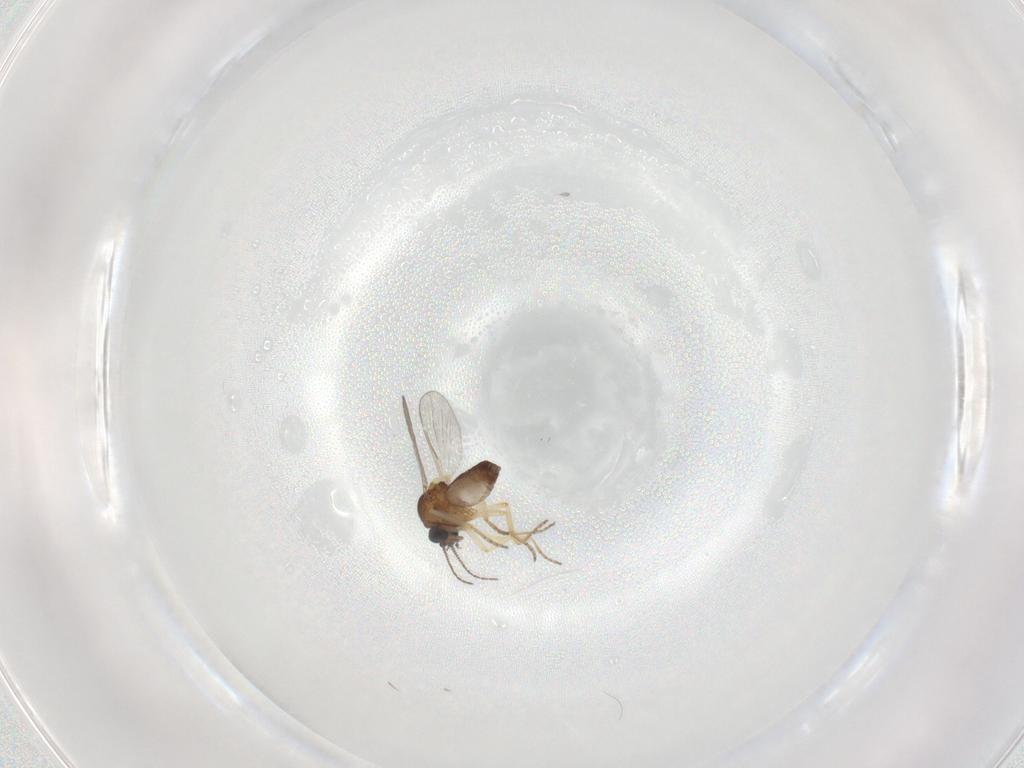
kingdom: Animalia
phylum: Arthropoda
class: Insecta
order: Diptera
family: Ceratopogonidae
